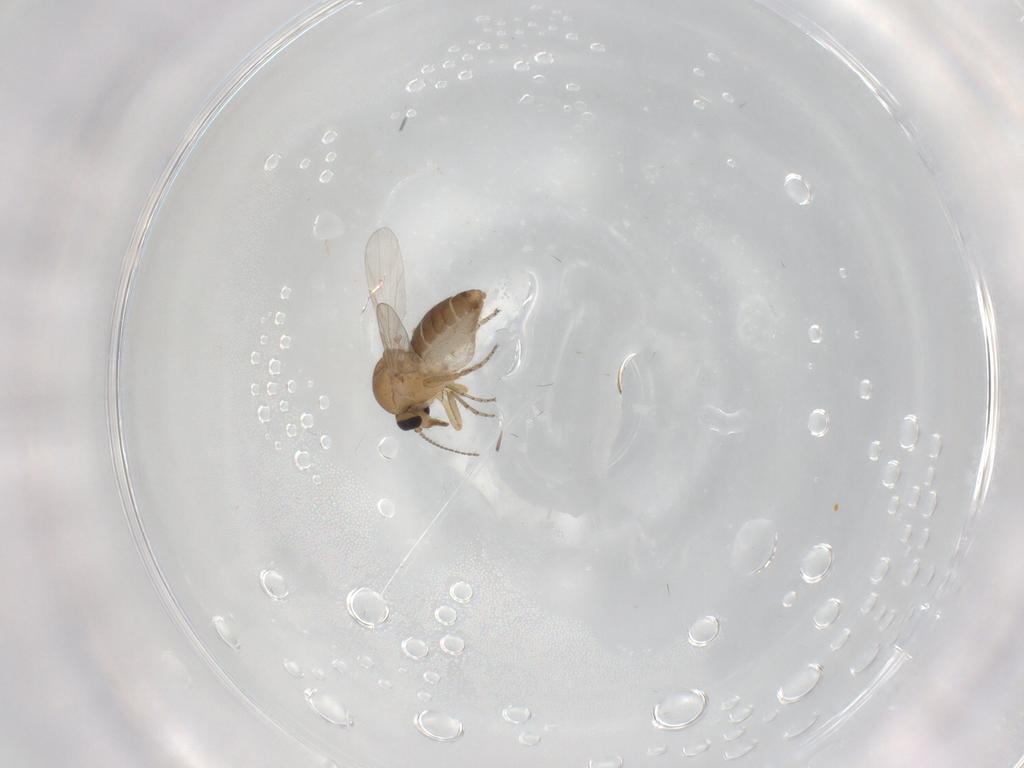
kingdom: Animalia
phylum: Arthropoda
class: Insecta
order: Diptera
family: Ceratopogonidae
